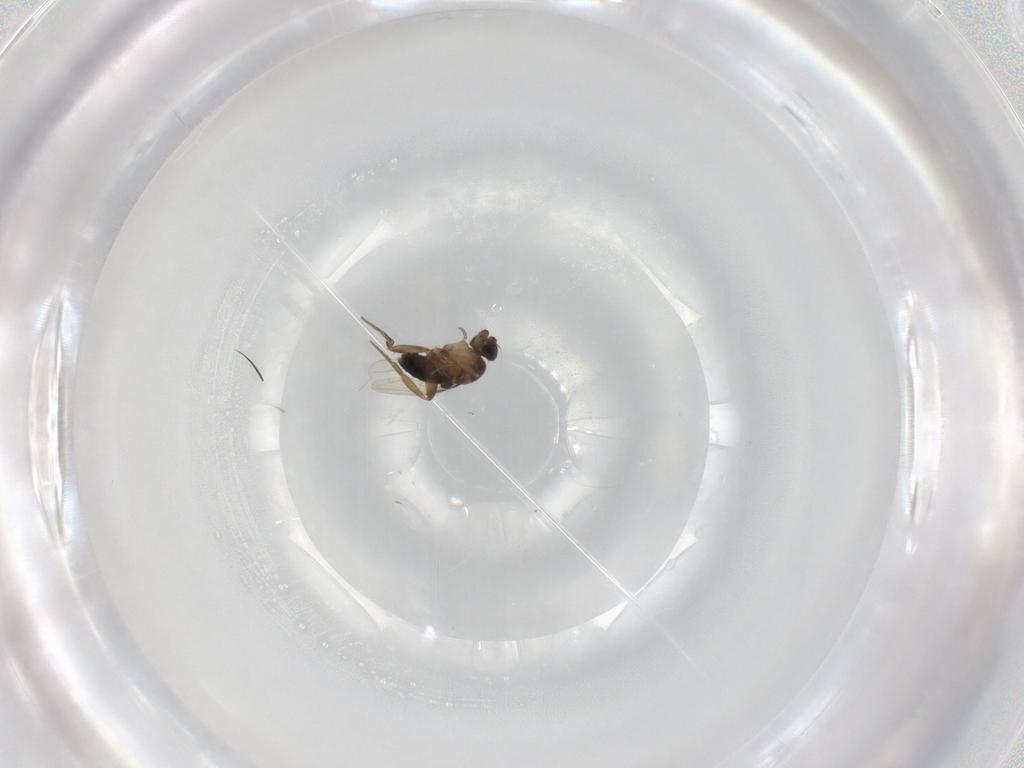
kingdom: Animalia
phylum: Arthropoda
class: Insecta
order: Diptera
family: Phoridae
